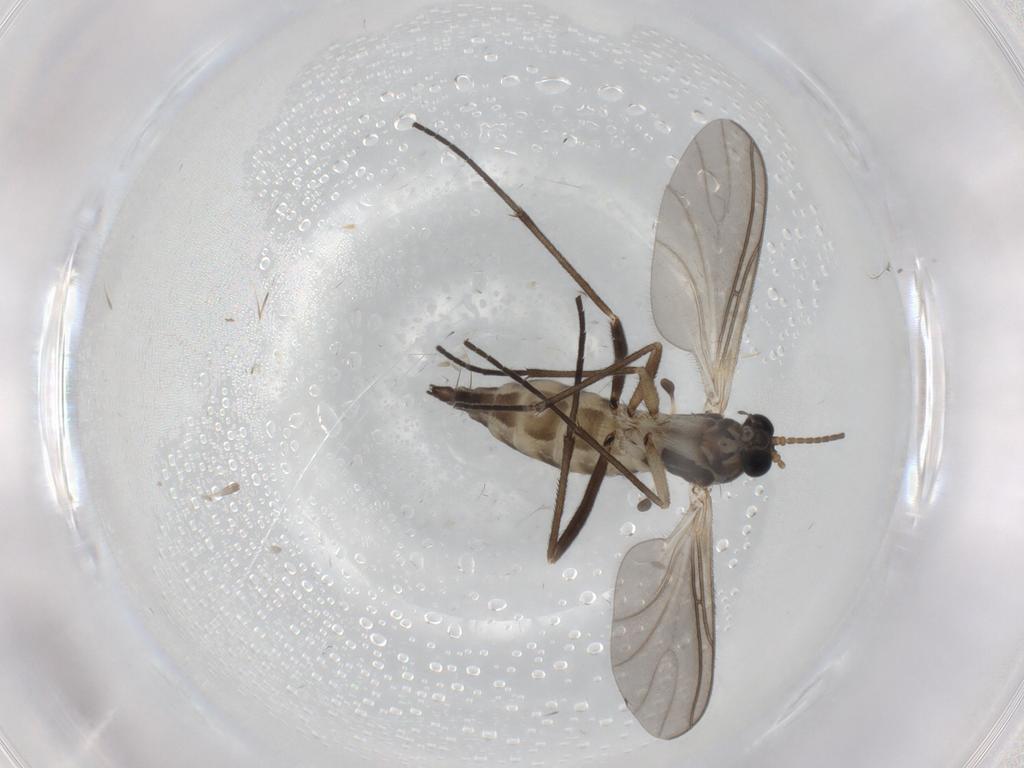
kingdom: Animalia
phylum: Arthropoda
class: Insecta
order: Diptera
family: Sciaridae
